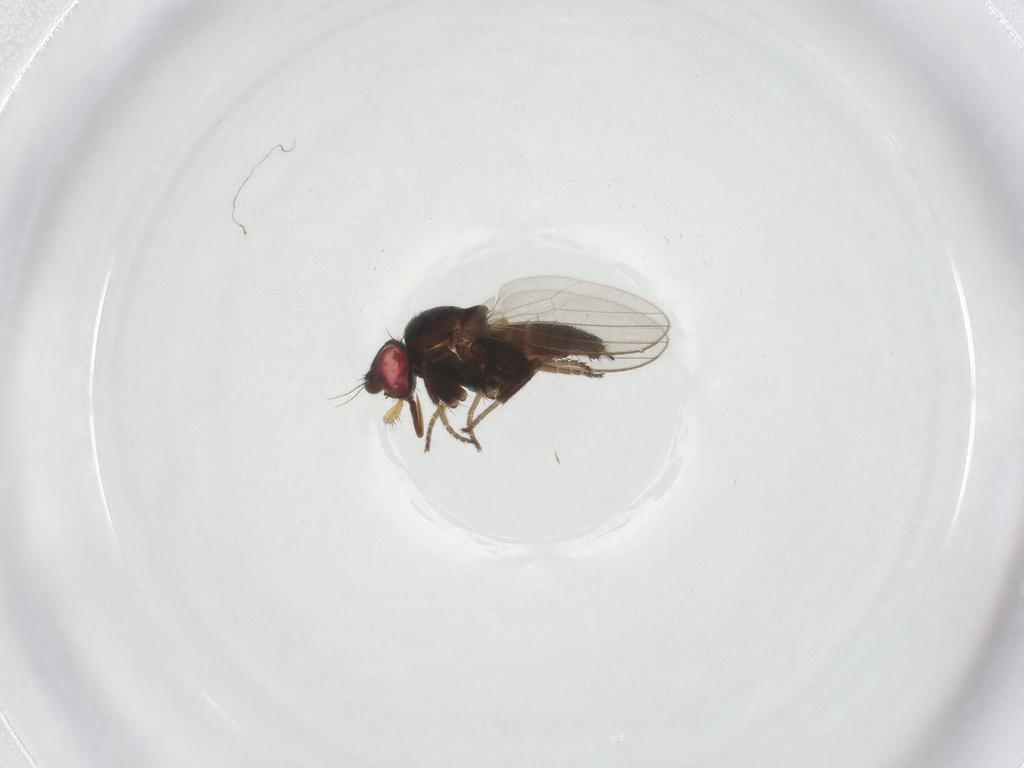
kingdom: Animalia
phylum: Arthropoda
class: Insecta
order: Diptera
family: Milichiidae
